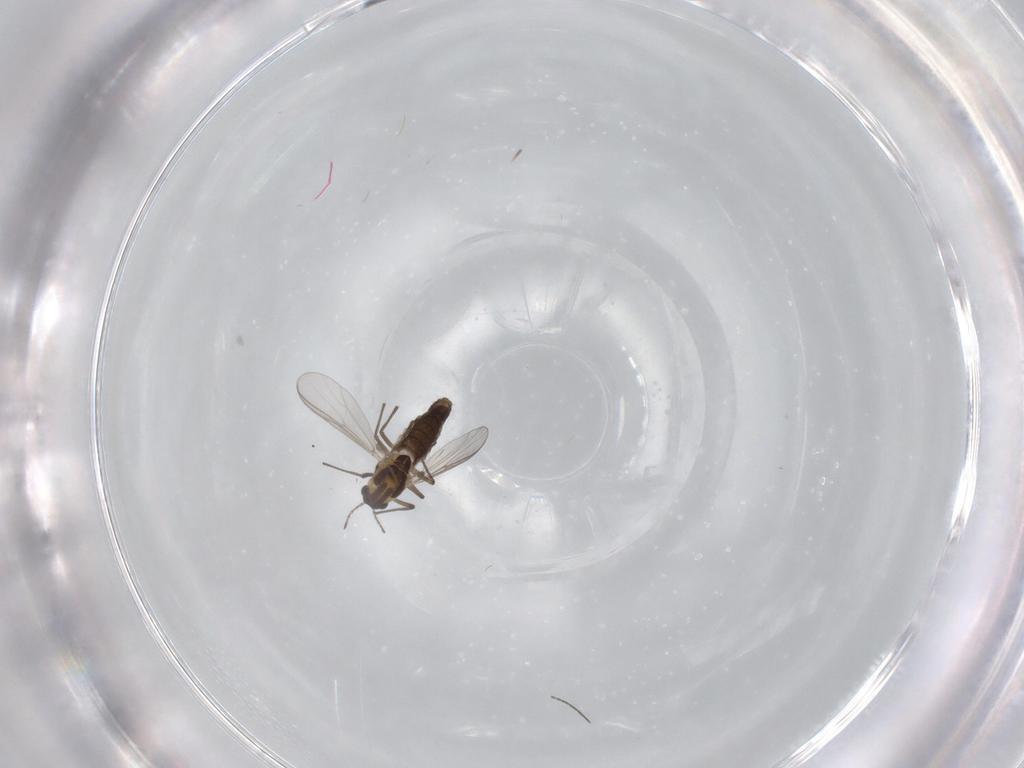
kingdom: Animalia
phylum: Arthropoda
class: Insecta
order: Diptera
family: Chironomidae
